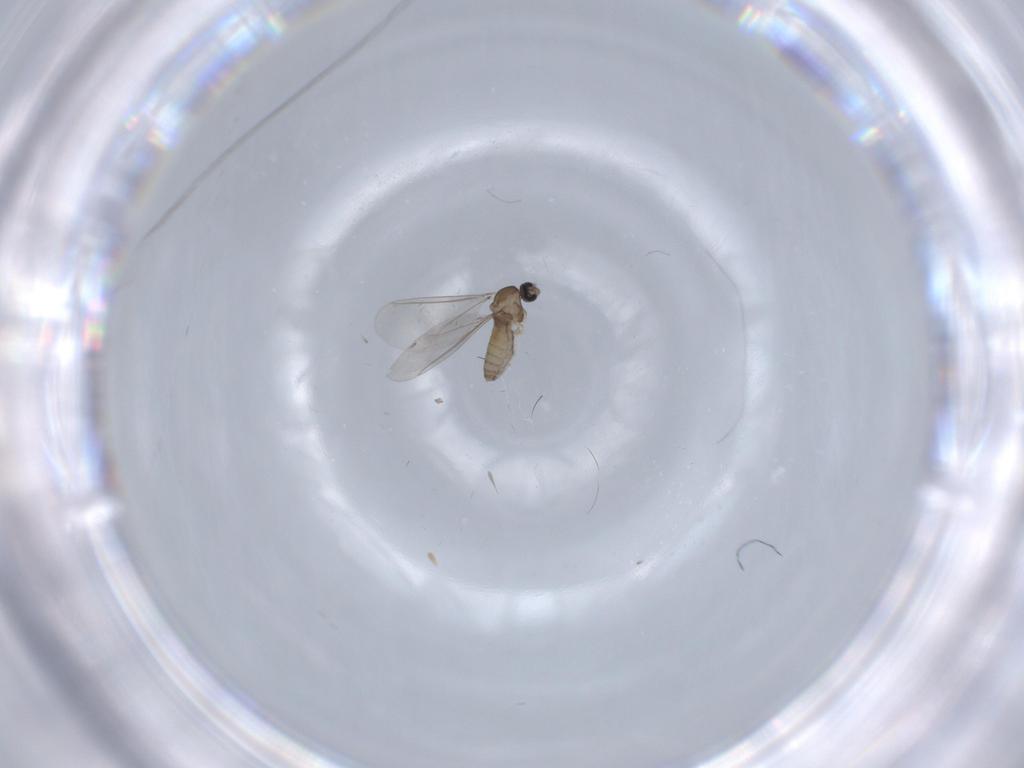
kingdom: Animalia
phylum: Arthropoda
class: Insecta
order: Diptera
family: Cecidomyiidae
